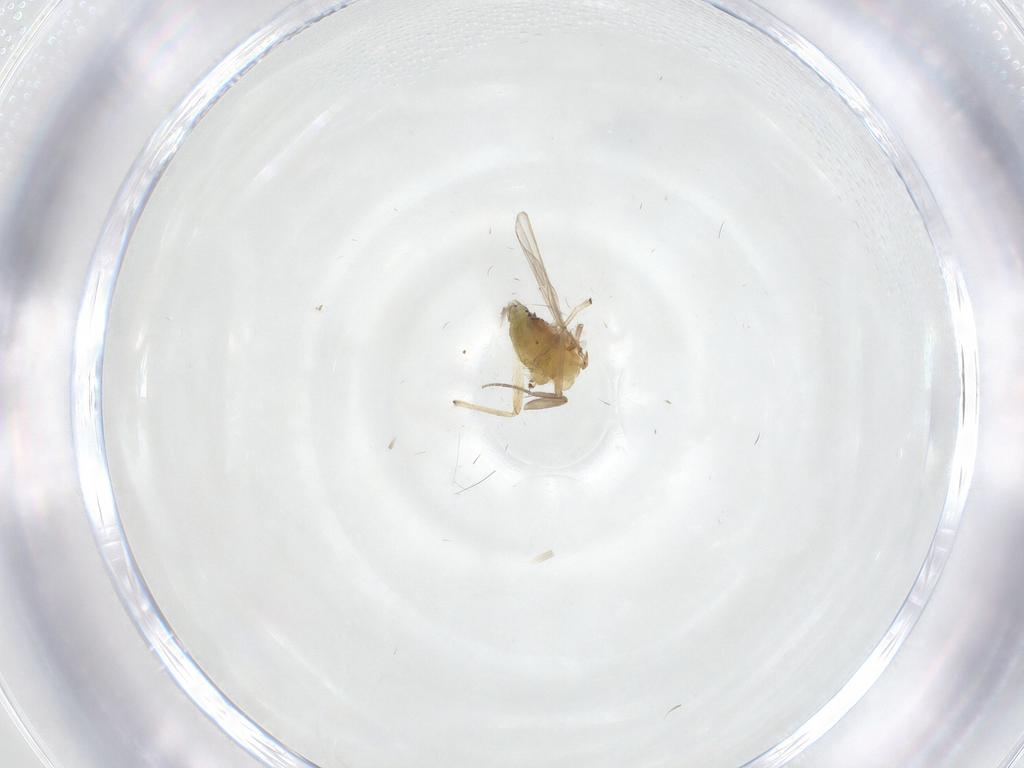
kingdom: Animalia
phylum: Arthropoda
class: Insecta
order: Diptera
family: Chironomidae
